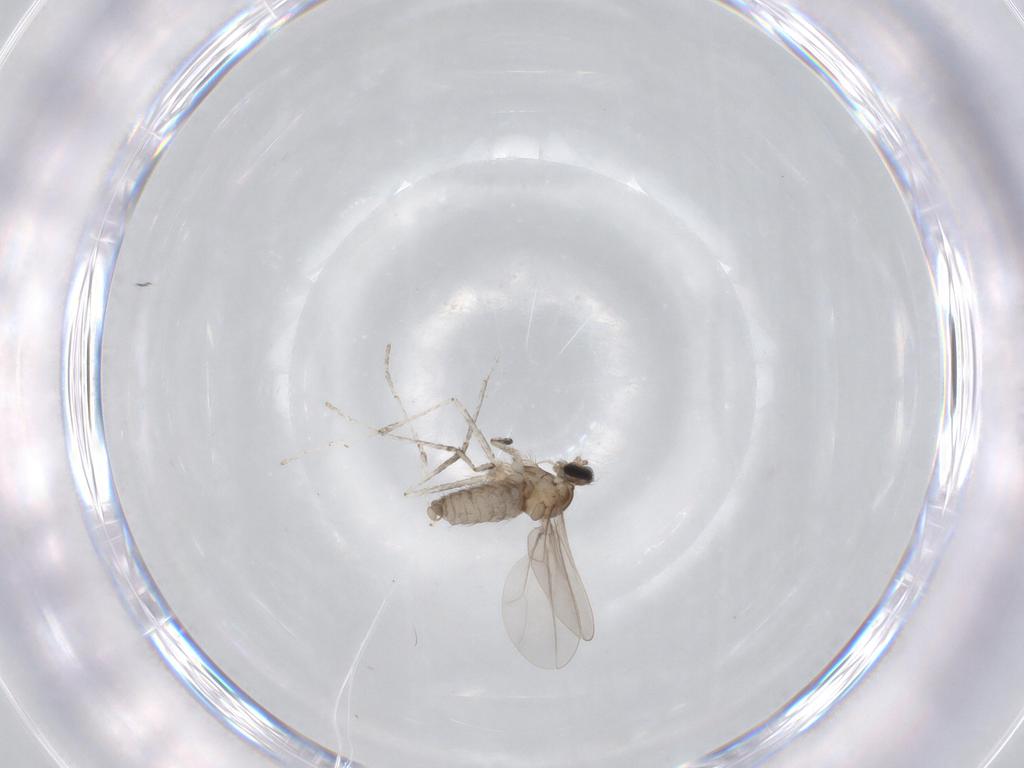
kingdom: Animalia
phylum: Arthropoda
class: Insecta
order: Diptera
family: Cecidomyiidae
